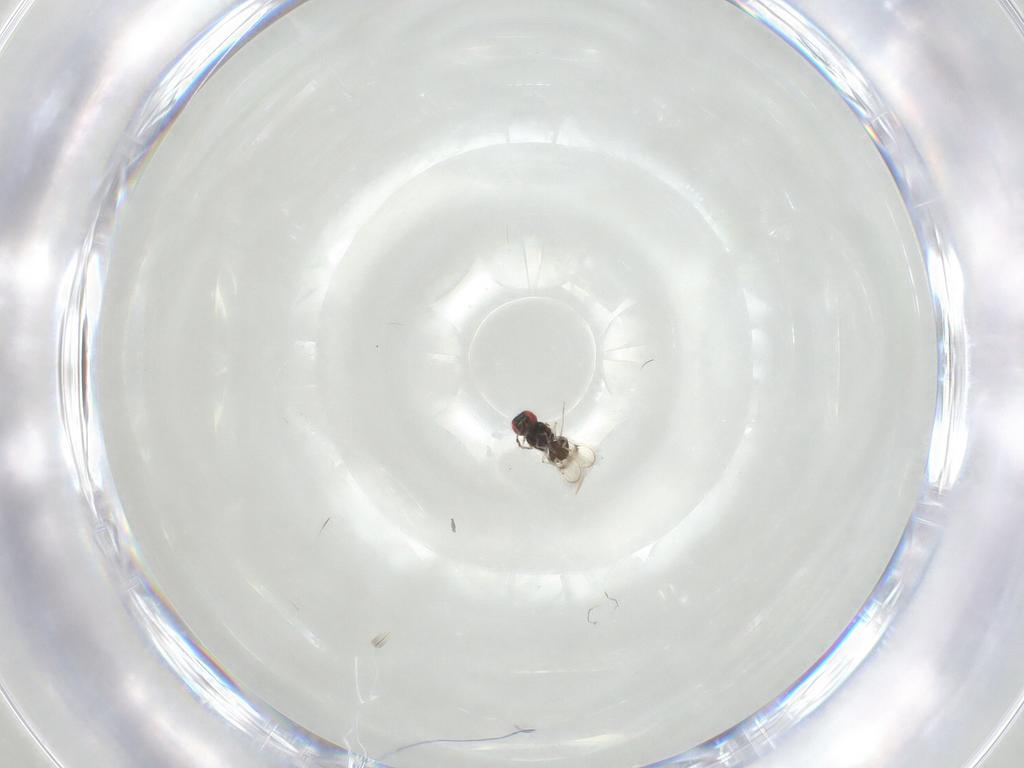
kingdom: Animalia
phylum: Arthropoda
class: Insecta
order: Hymenoptera
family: Eulophidae
